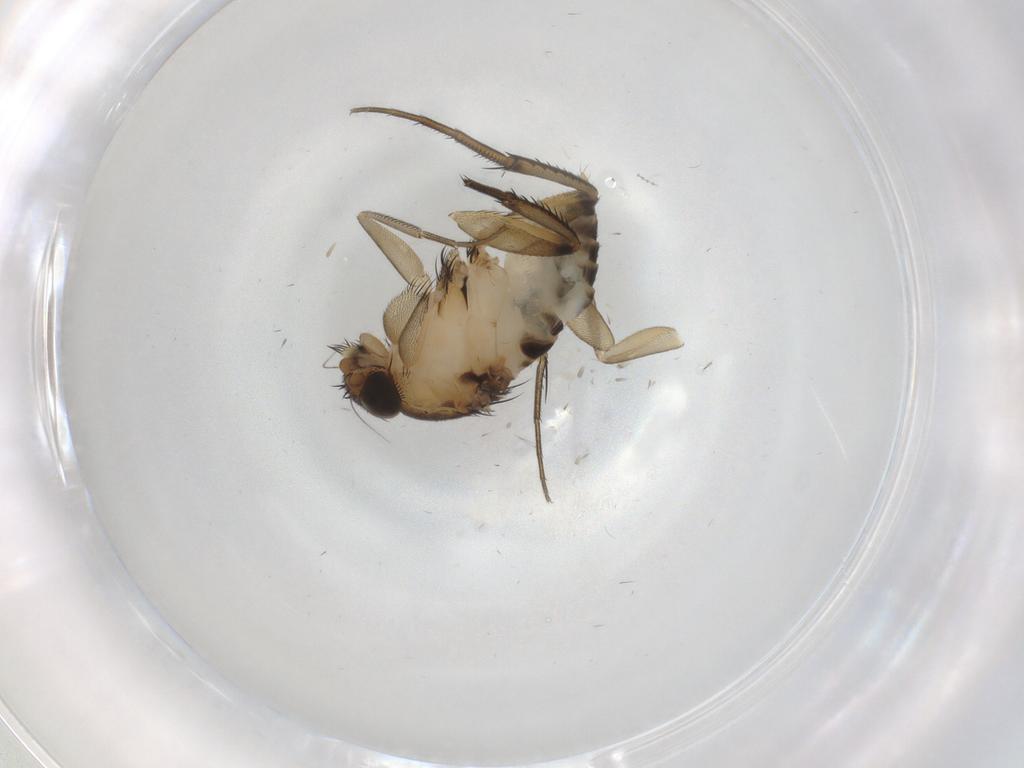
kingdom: Animalia
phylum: Arthropoda
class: Insecta
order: Diptera
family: Phoridae
